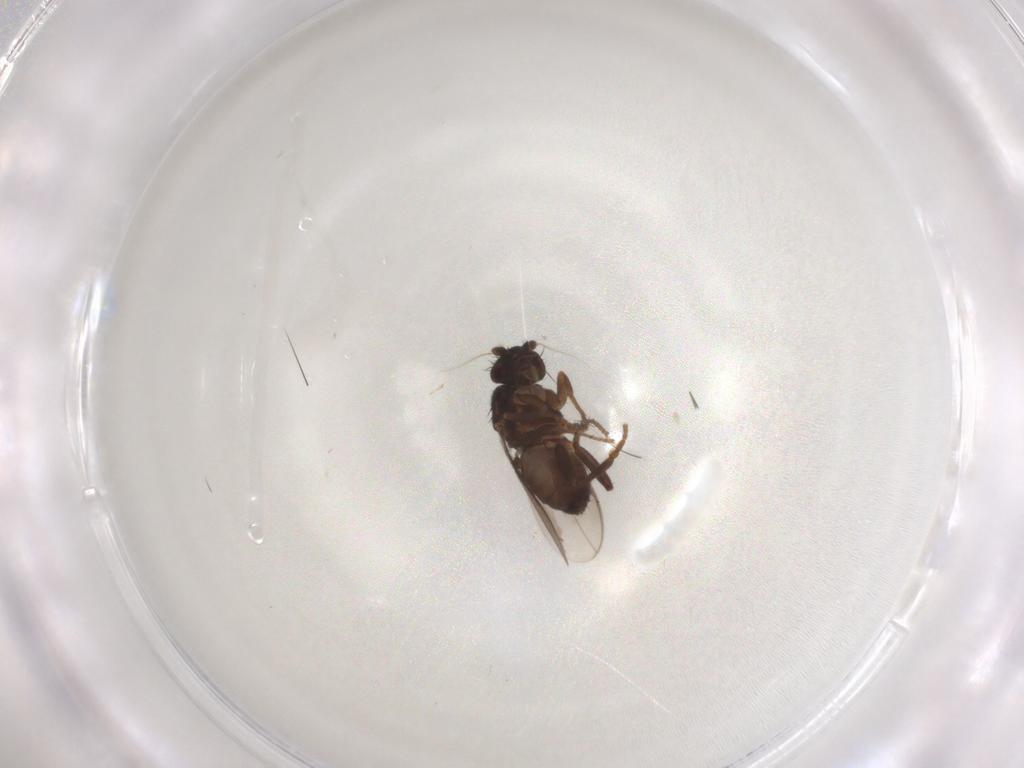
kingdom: Animalia
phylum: Arthropoda
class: Insecta
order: Diptera
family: Sphaeroceridae
